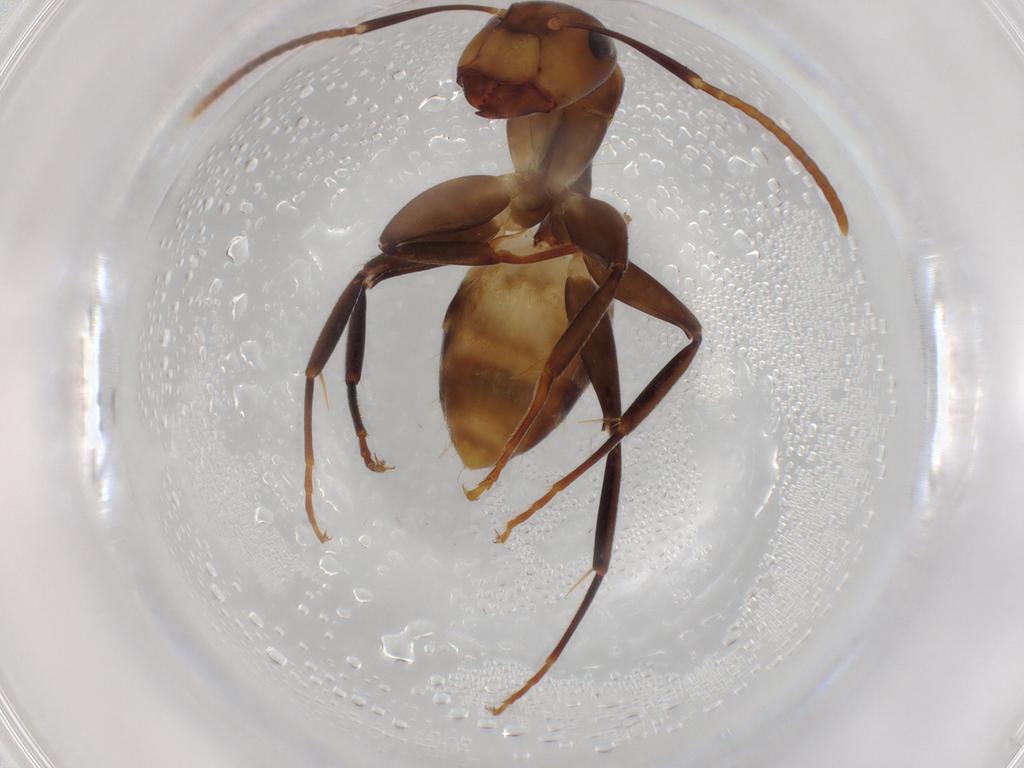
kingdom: Animalia
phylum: Arthropoda
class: Insecta
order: Hymenoptera
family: Formicidae
